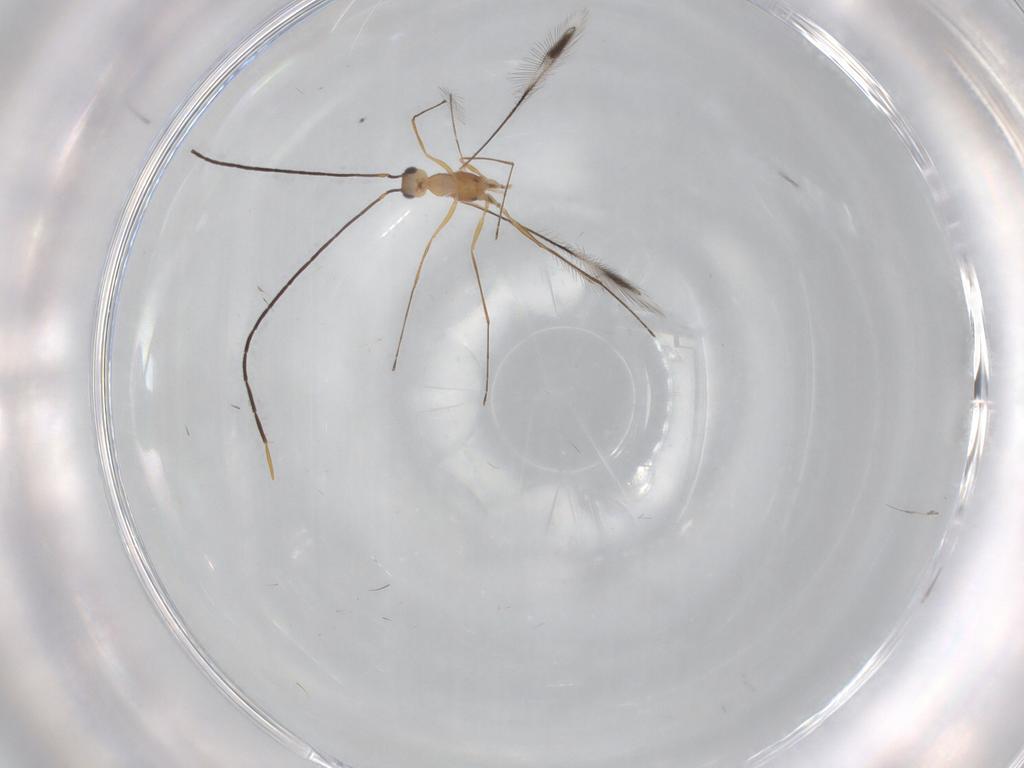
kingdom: Animalia
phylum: Arthropoda
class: Insecta
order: Hymenoptera
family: Mymaridae
